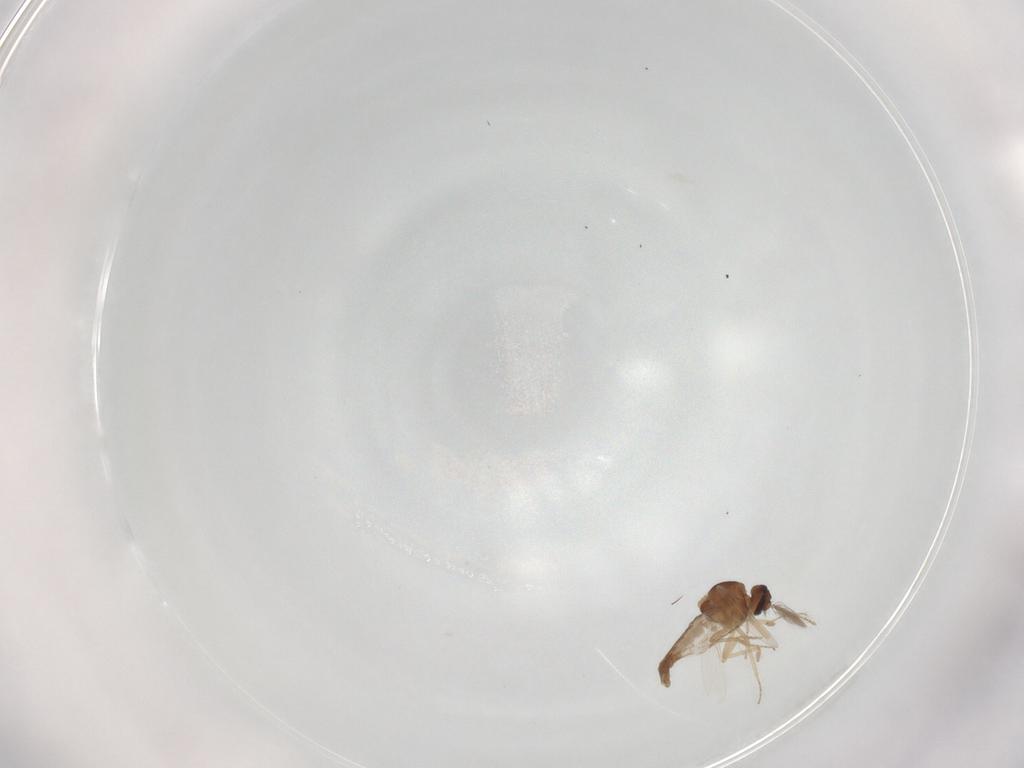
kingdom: Animalia
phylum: Arthropoda
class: Insecta
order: Diptera
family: Ceratopogonidae
